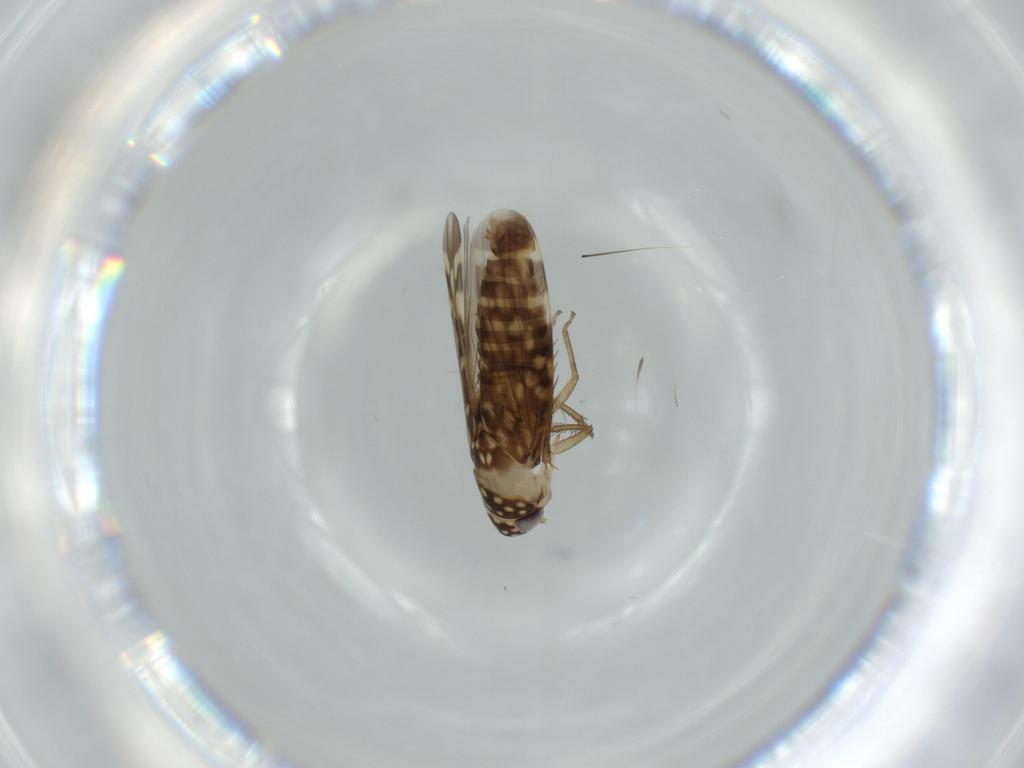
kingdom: Animalia
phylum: Arthropoda
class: Insecta
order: Hemiptera
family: Cicadellidae
